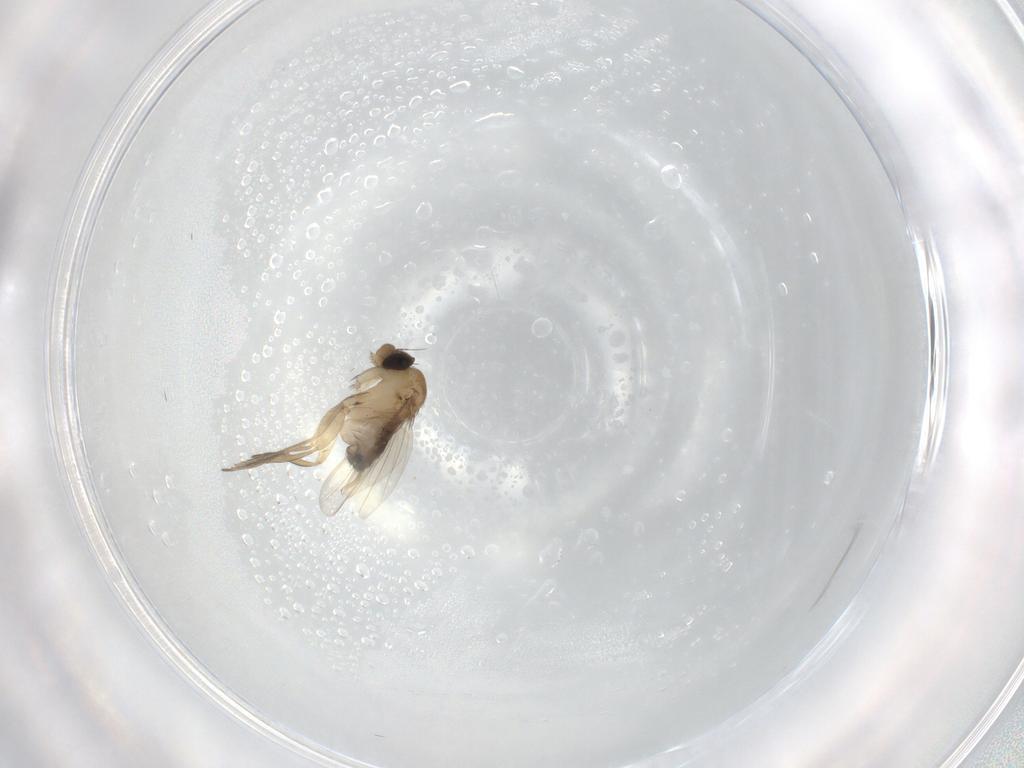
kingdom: Animalia
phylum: Arthropoda
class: Insecta
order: Diptera
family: Phoridae
